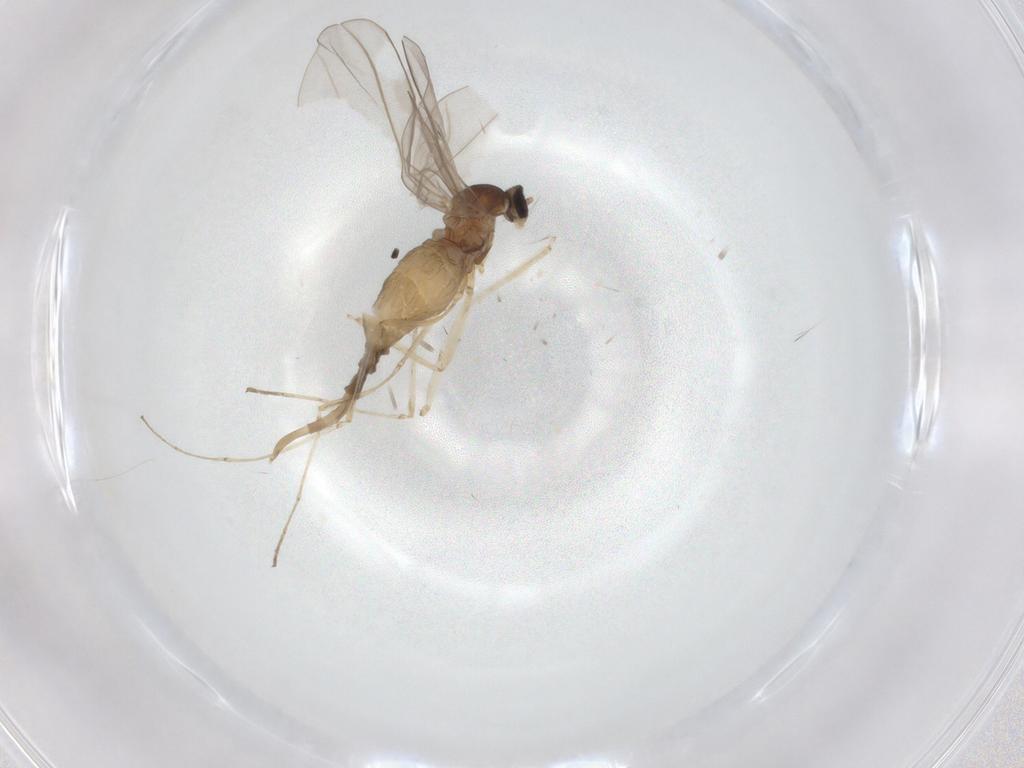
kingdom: Animalia
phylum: Arthropoda
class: Insecta
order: Diptera
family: Cecidomyiidae
